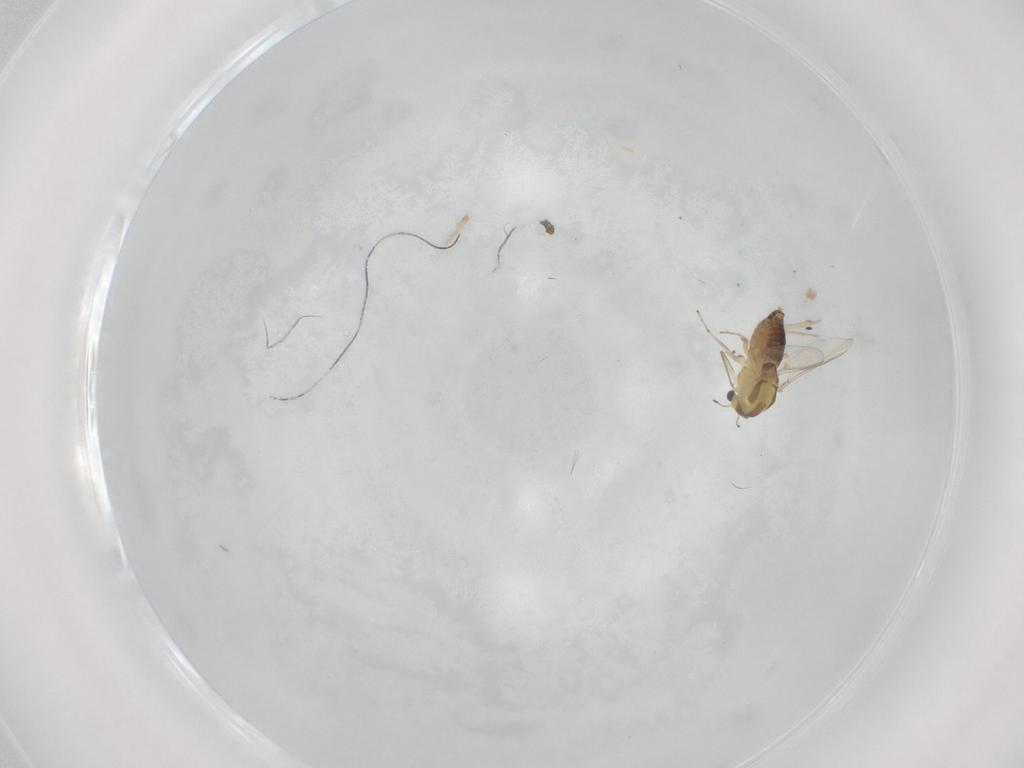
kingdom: Animalia
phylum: Arthropoda
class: Insecta
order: Diptera
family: Chironomidae
